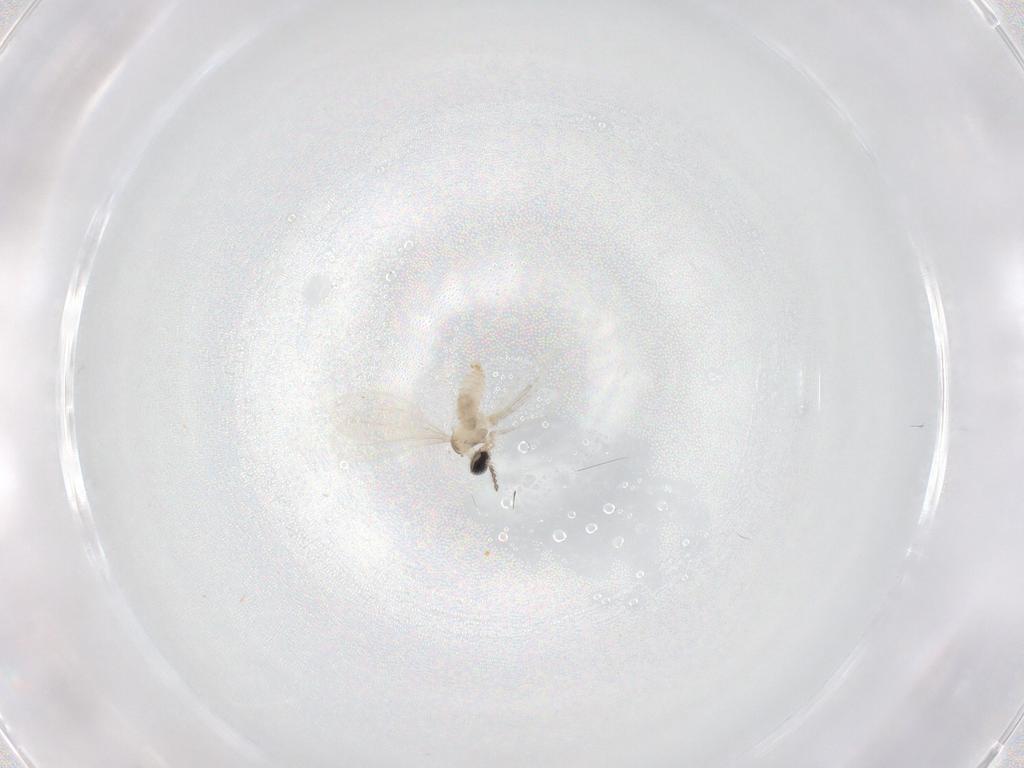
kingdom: Animalia
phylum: Arthropoda
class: Insecta
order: Diptera
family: Cecidomyiidae
